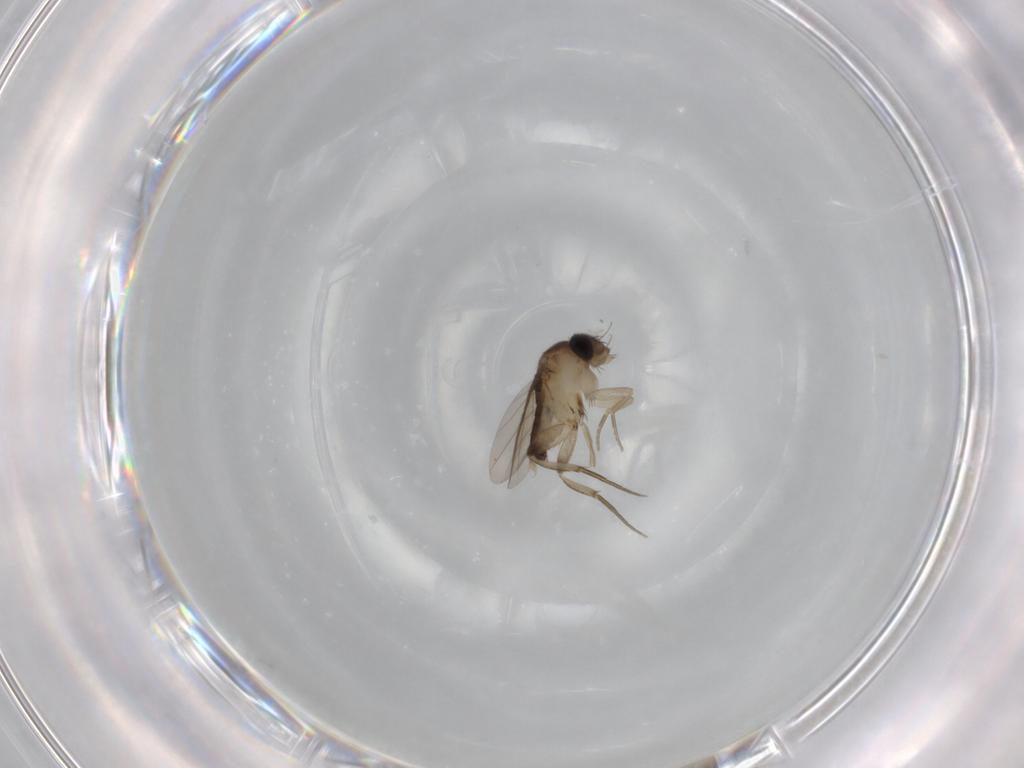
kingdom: Animalia
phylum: Arthropoda
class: Insecta
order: Diptera
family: Phoridae
